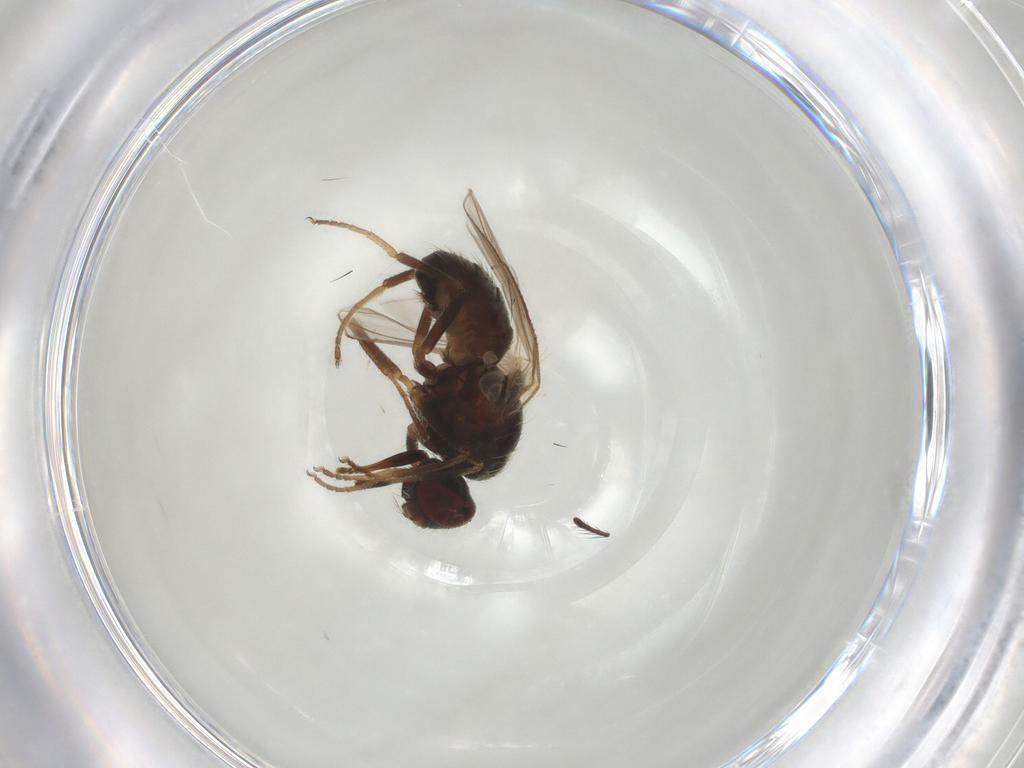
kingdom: Animalia
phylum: Arthropoda
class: Insecta
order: Diptera
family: Muscidae
